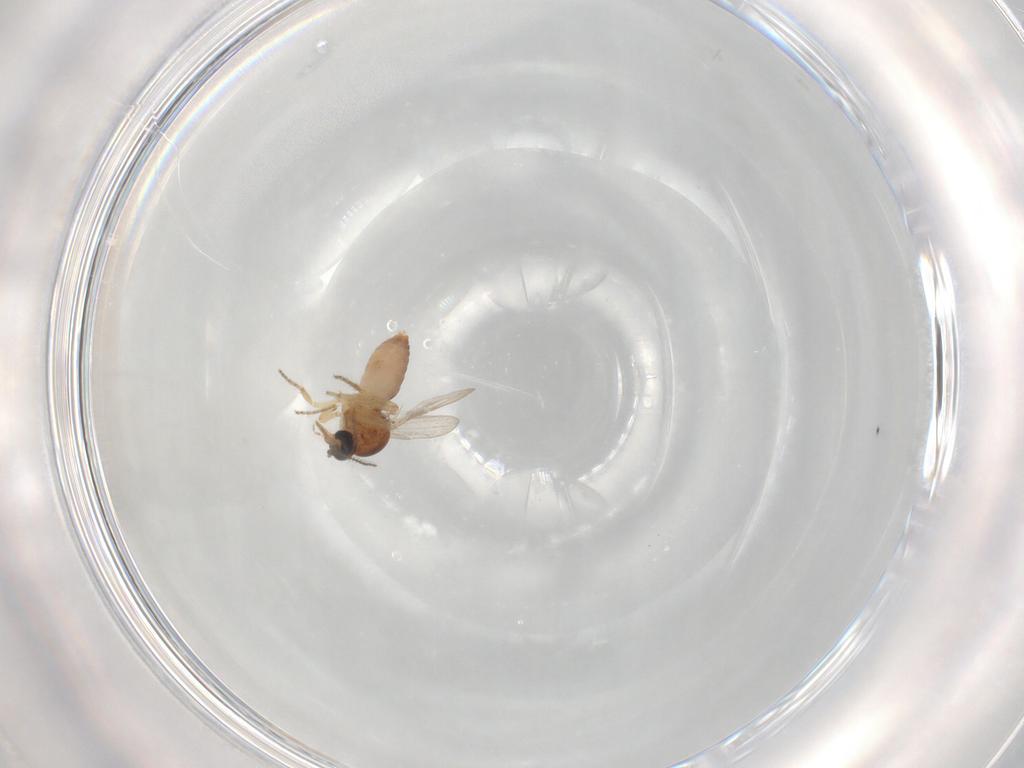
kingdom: Animalia
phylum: Arthropoda
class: Insecta
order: Diptera
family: Ceratopogonidae
